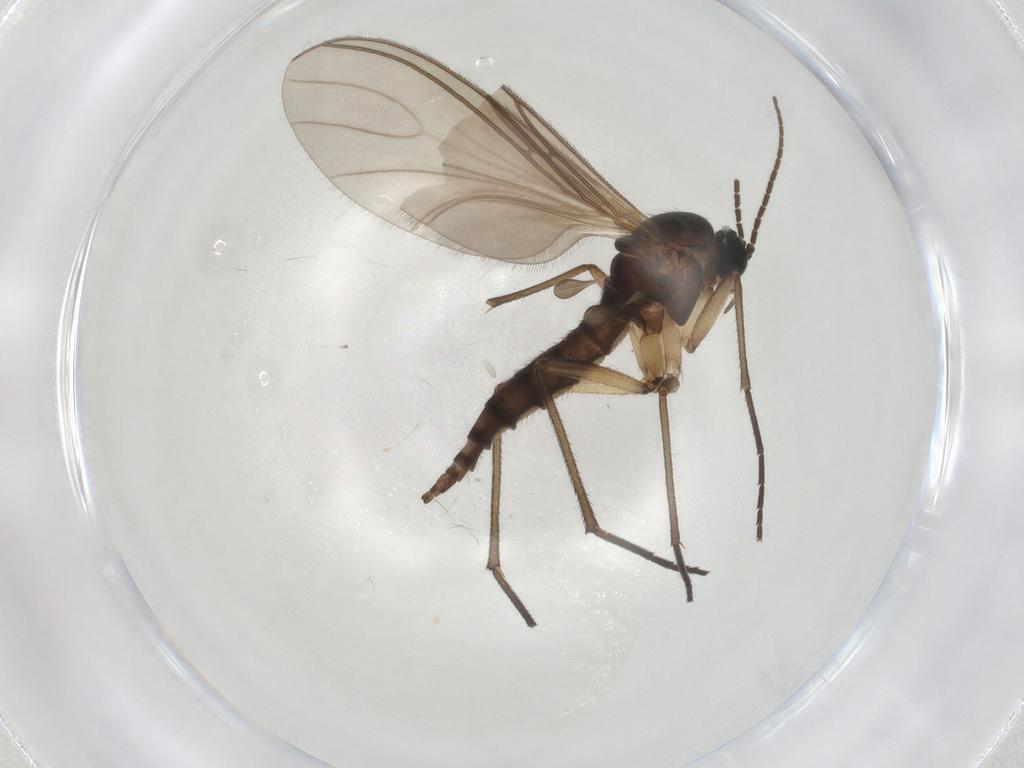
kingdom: Animalia
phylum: Arthropoda
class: Insecta
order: Diptera
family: Sciaridae
